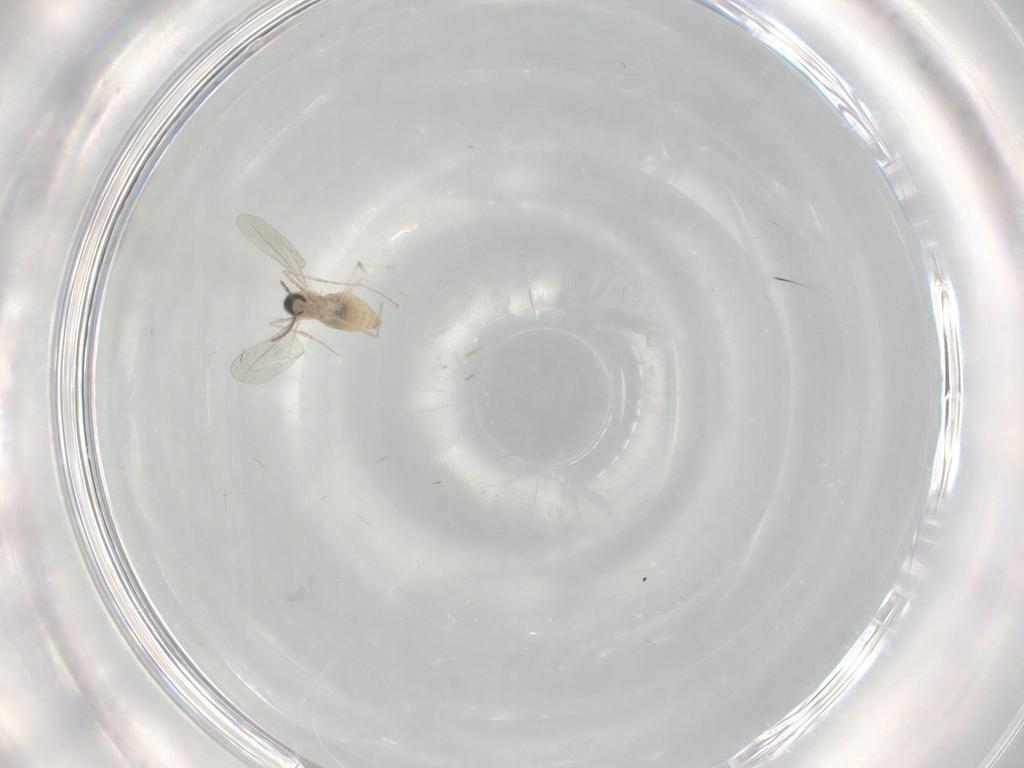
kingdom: Animalia
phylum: Arthropoda
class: Insecta
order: Diptera
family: Cecidomyiidae
